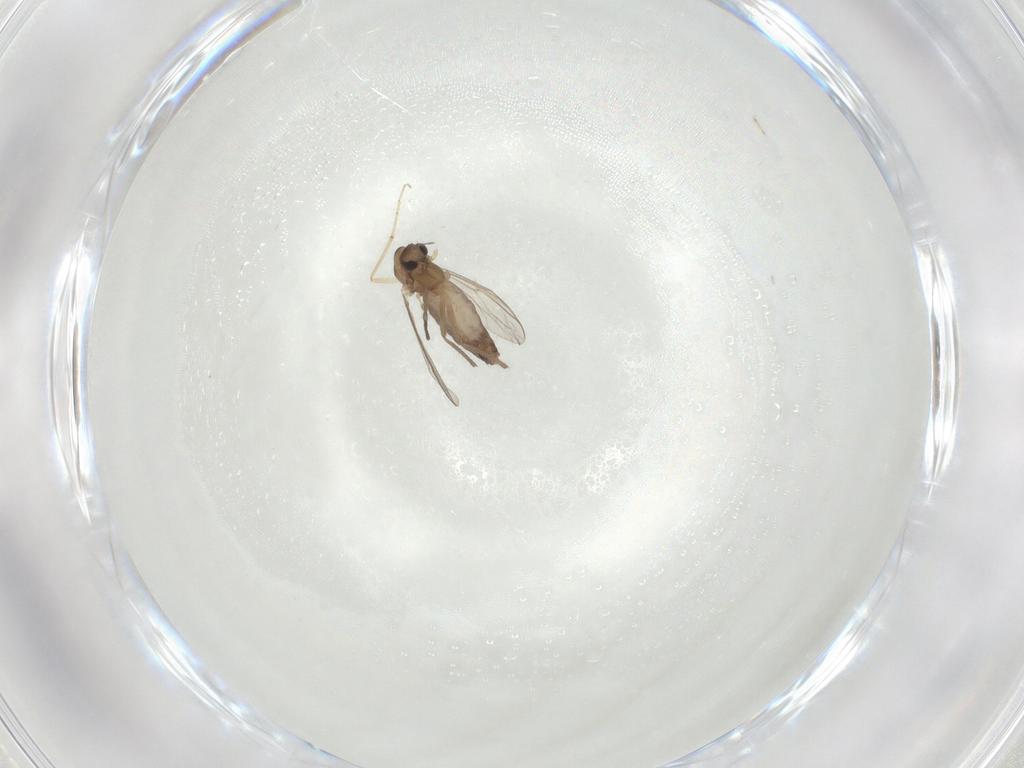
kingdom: Animalia
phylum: Arthropoda
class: Insecta
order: Diptera
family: Chironomidae
